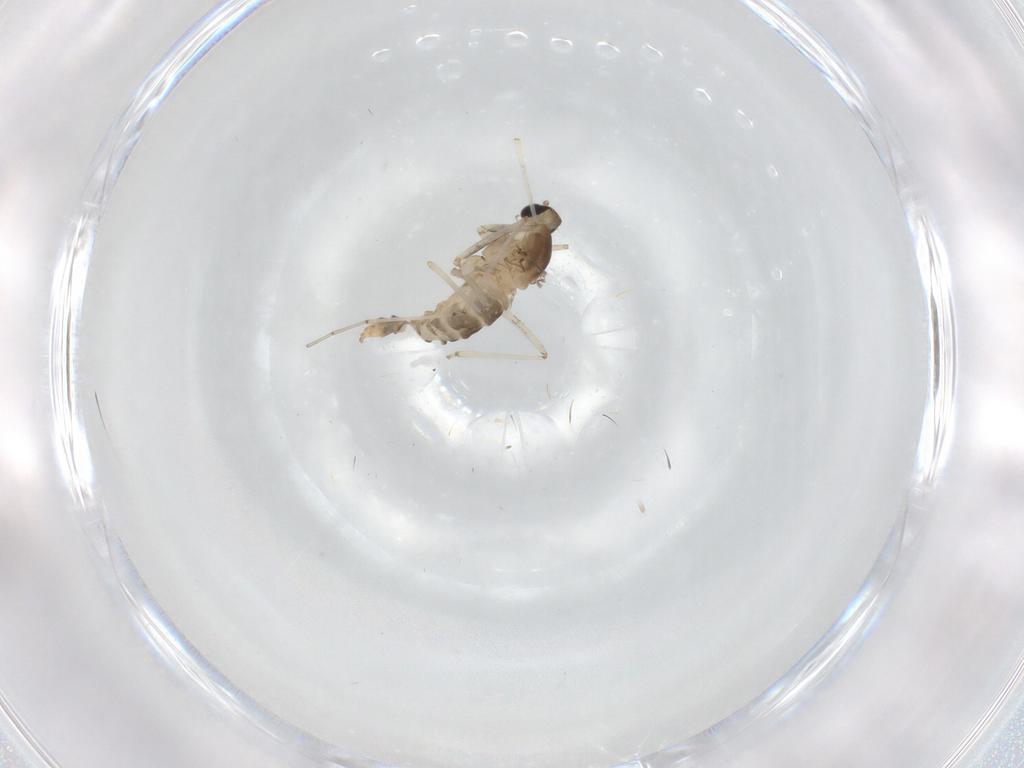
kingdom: Animalia
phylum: Arthropoda
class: Insecta
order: Diptera
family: Cecidomyiidae
